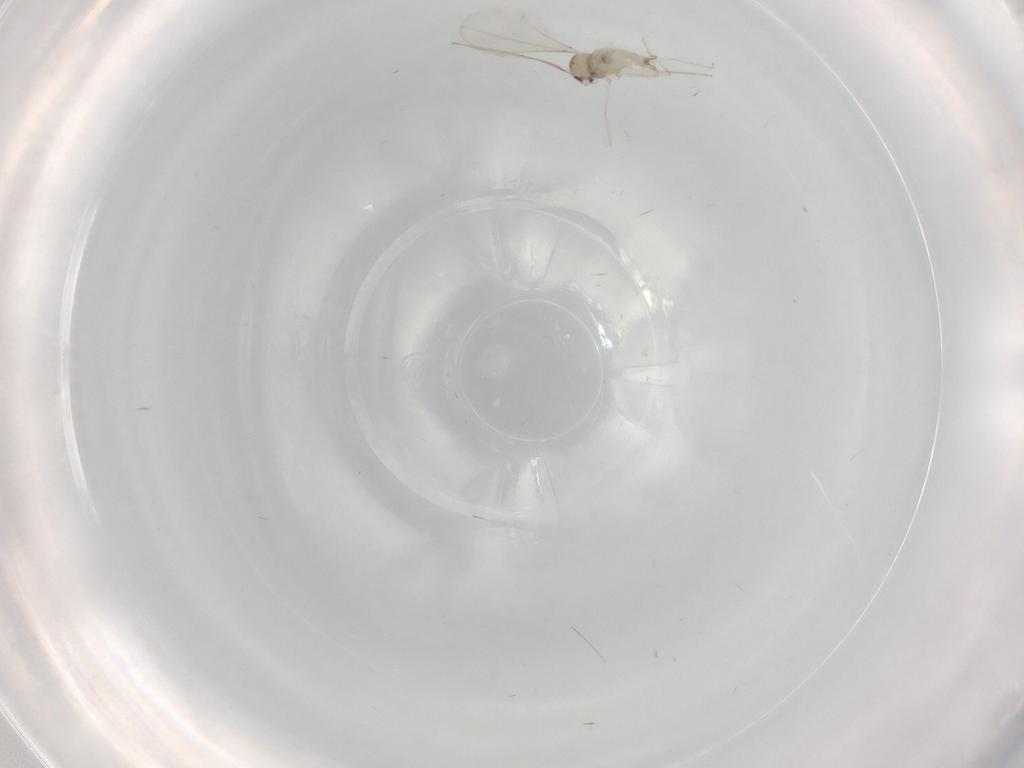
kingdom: Animalia
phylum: Arthropoda
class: Insecta
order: Diptera
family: Cecidomyiidae
